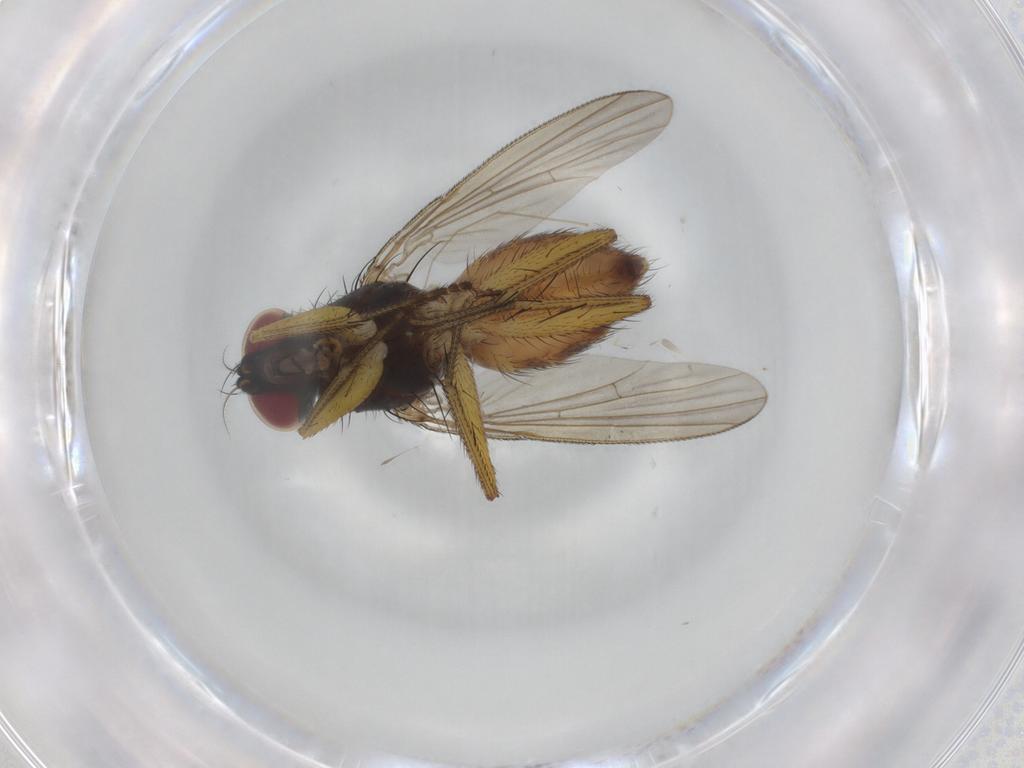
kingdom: Animalia
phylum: Arthropoda
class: Insecta
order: Diptera
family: Muscidae
